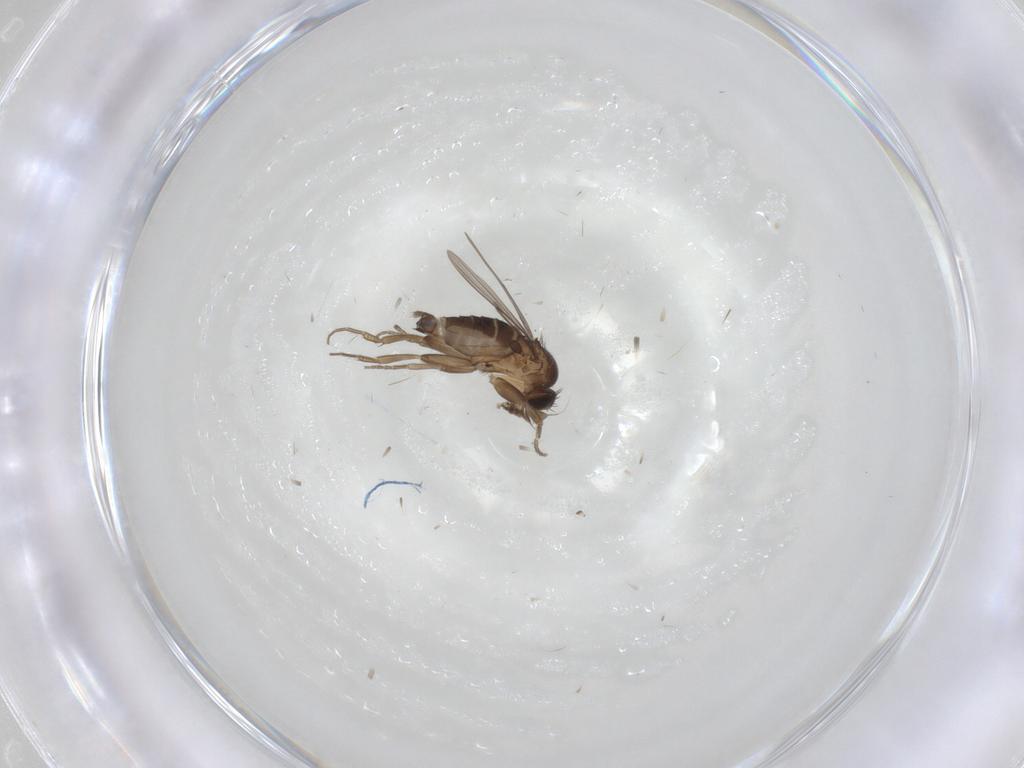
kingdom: Animalia
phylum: Arthropoda
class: Insecta
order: Diptera
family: Phoridae
